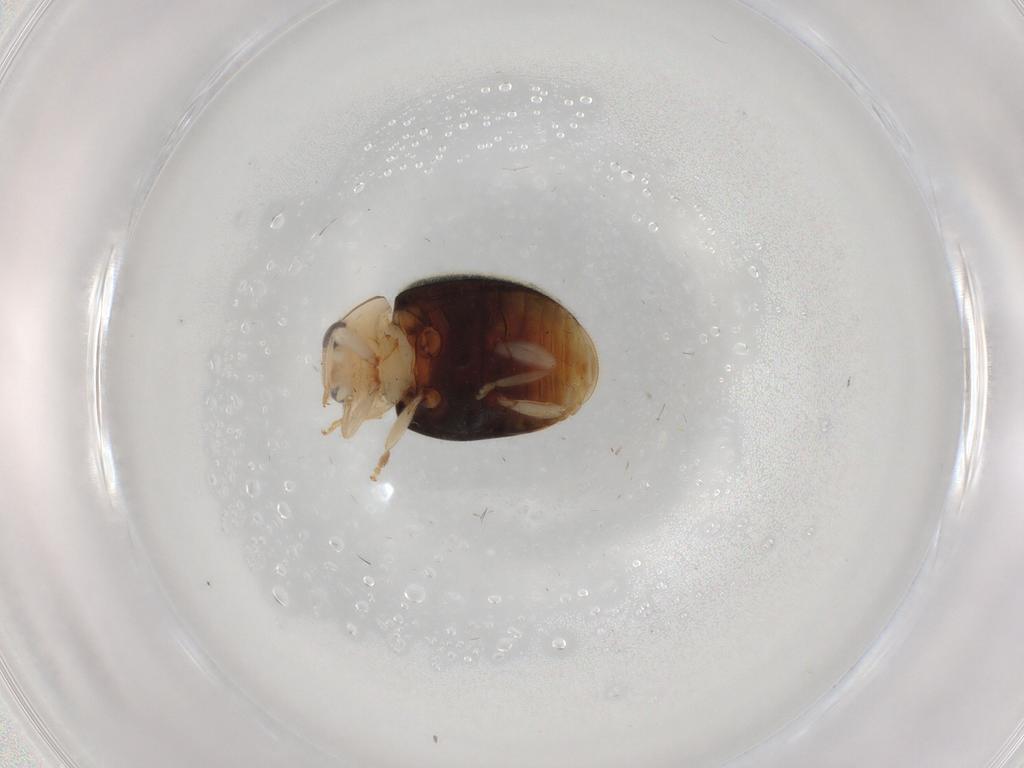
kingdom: Animalia
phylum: Arthropoda
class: Insecta
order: Coleoptera
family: Coccinellidae
